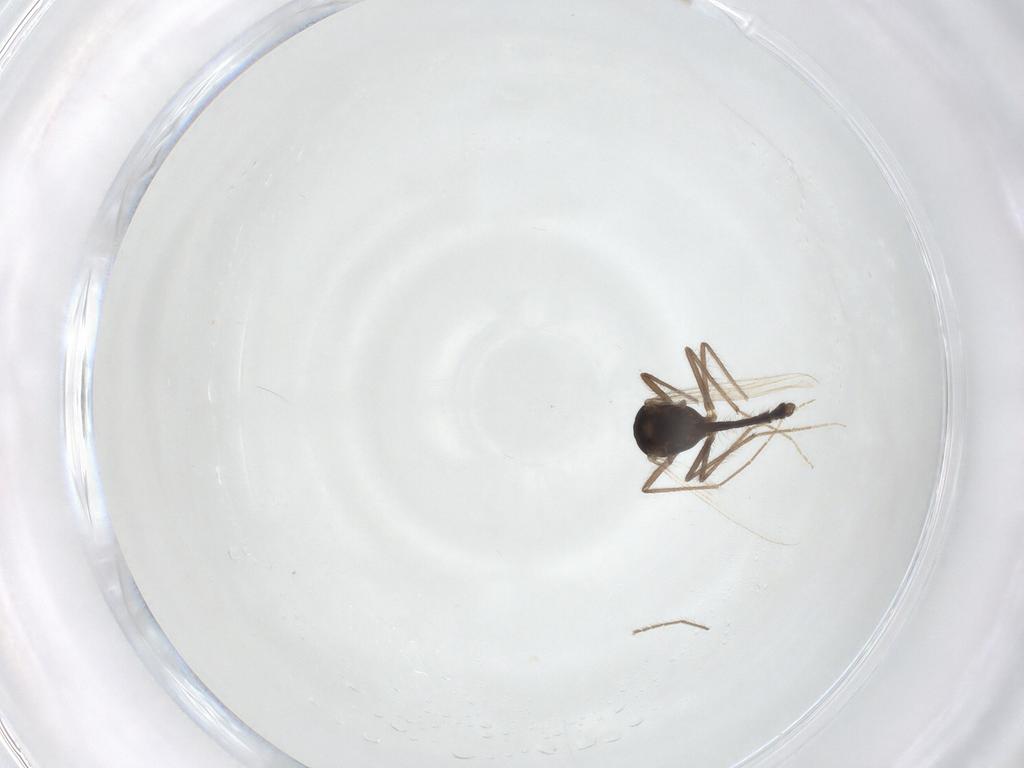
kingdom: Animalia
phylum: Arthropoda
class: Insecta
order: Diptera
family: Chironomidae
